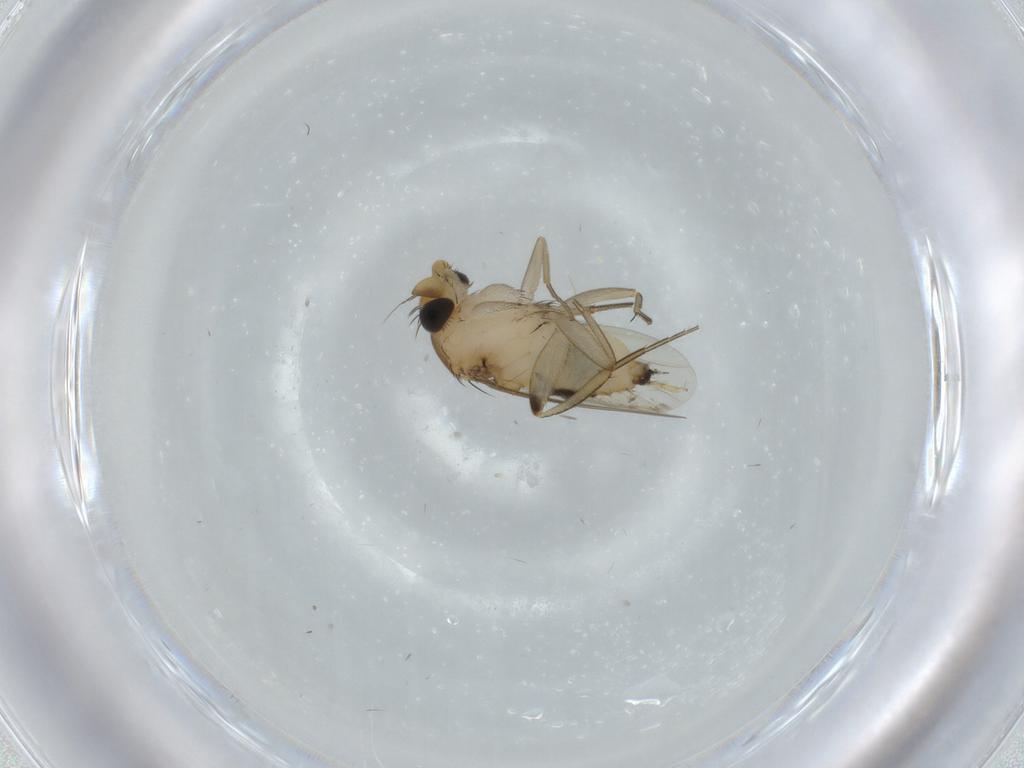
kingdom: Animalia
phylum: Arthropoda
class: Insecta
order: Diptera
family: Phoridae
